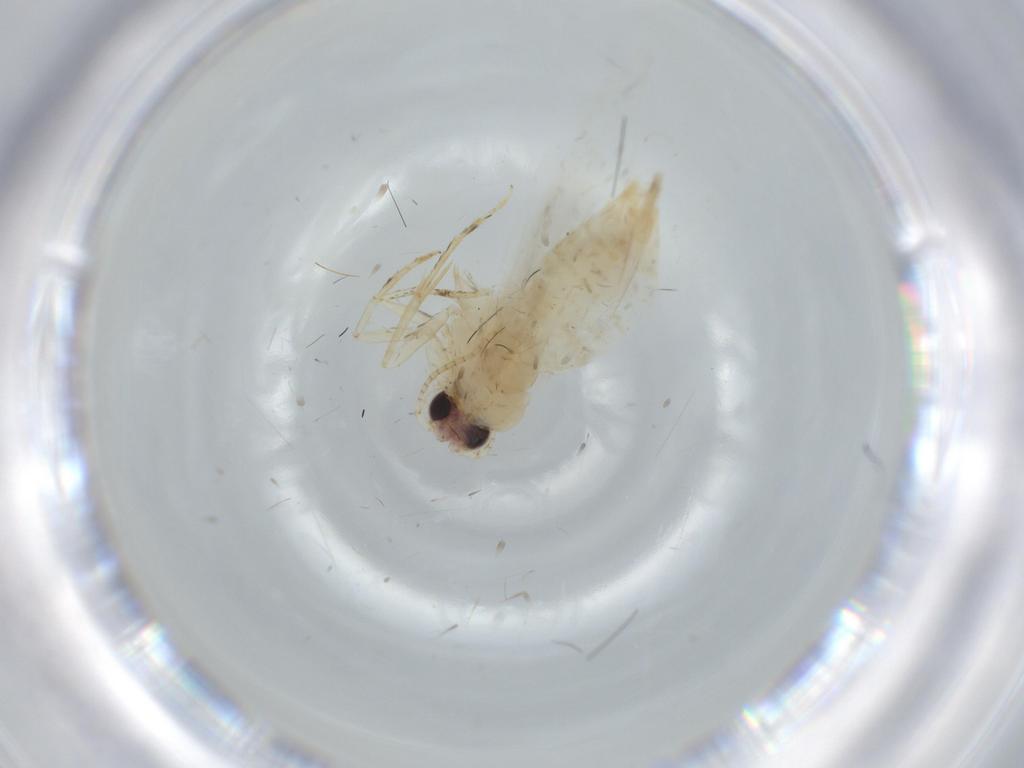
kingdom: Animalia
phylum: Arthropoda
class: Insecta
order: Lepidoptera
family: Tineidae
